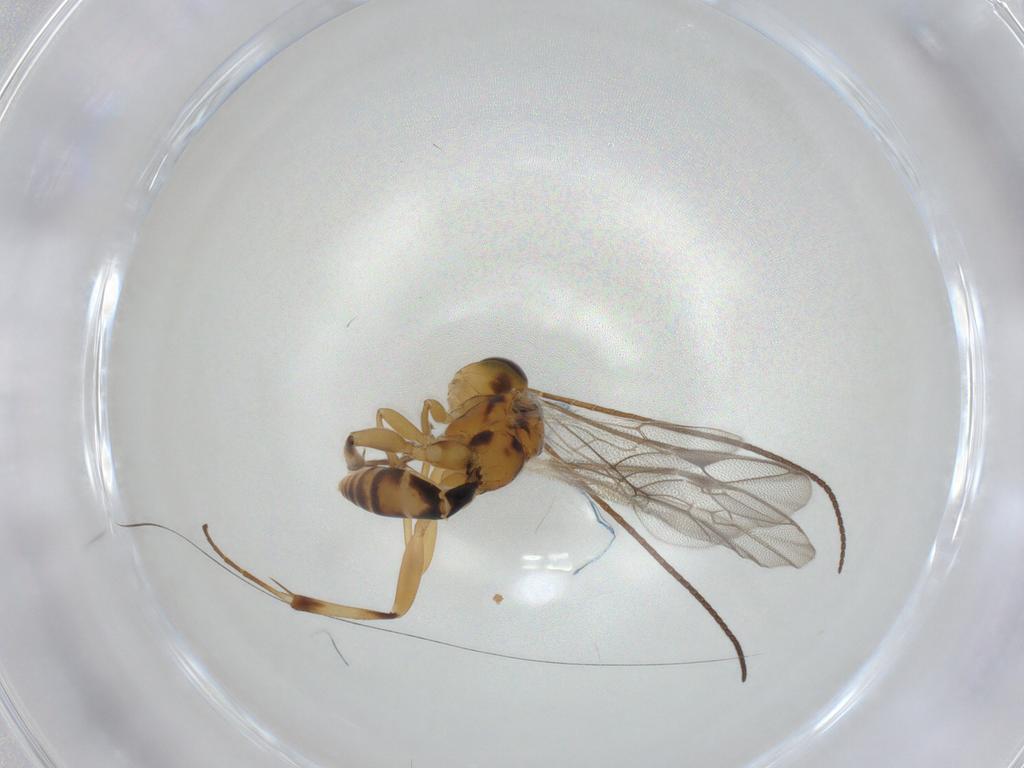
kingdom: Animalia
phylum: Arthropoda
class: Insecta
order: Hymenoptera
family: Ichneumonidae
